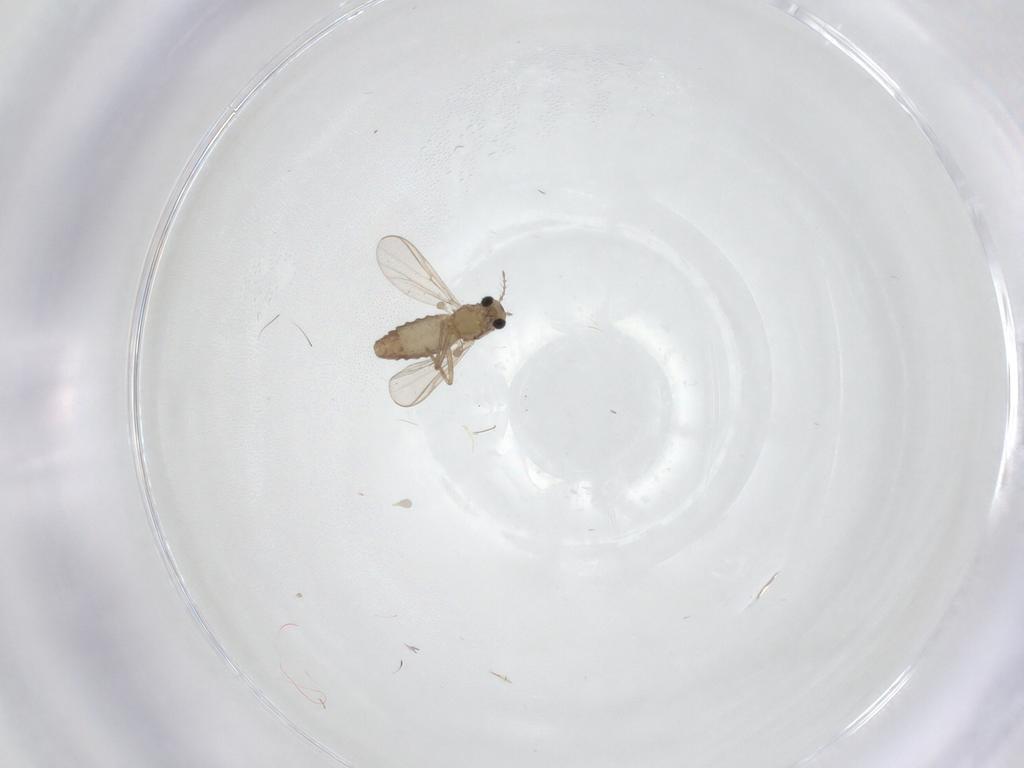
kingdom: Animalia
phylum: Arthropoda
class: Insecta
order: Diptera
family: Cecidomyiidae
